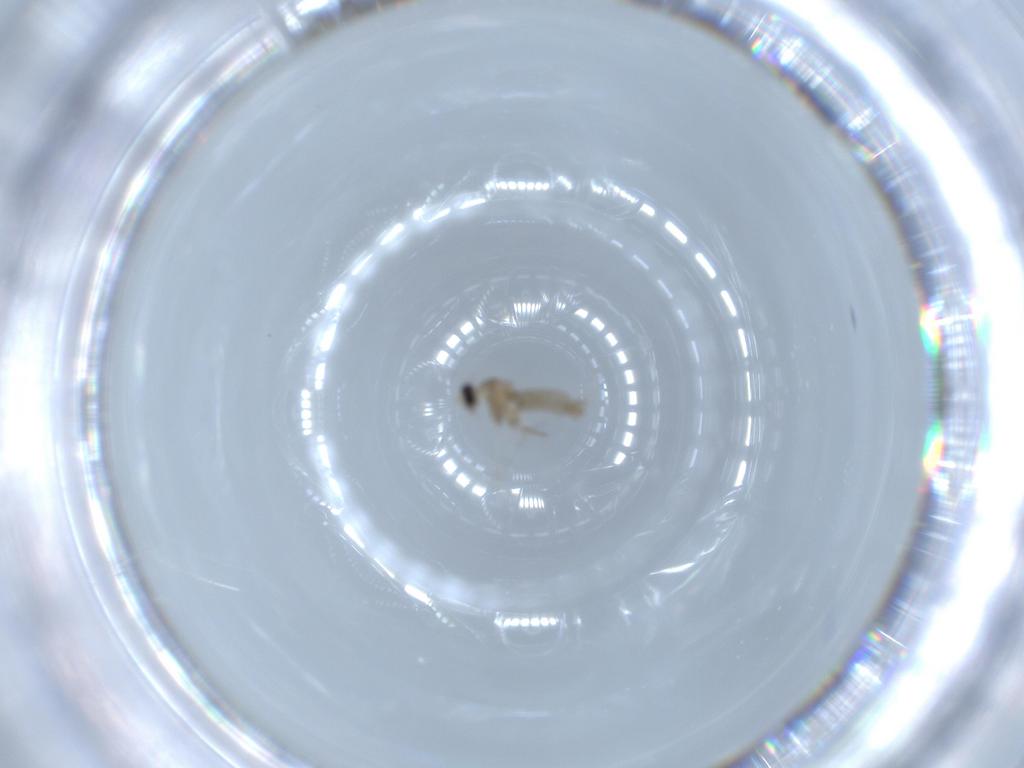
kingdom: Animalia
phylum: Arthropoda
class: Insecta
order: Diptera
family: Cecidomyiidae
